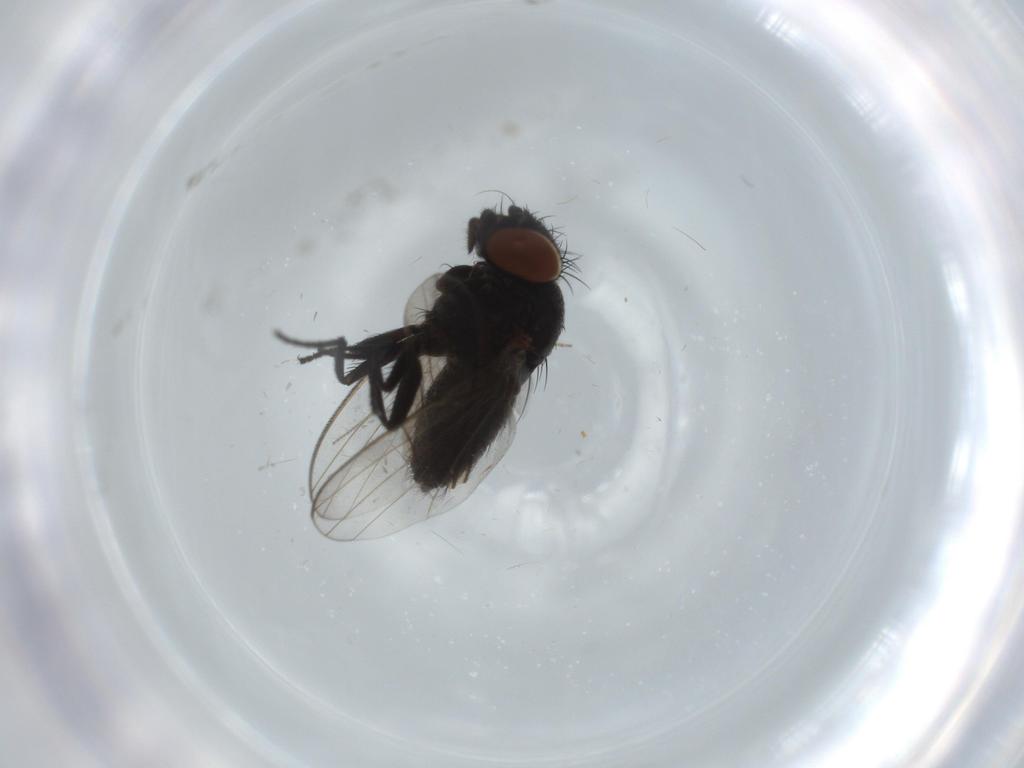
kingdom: Animalia
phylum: Arthropoda
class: Insecta
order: Diptera
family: Milichiidae
